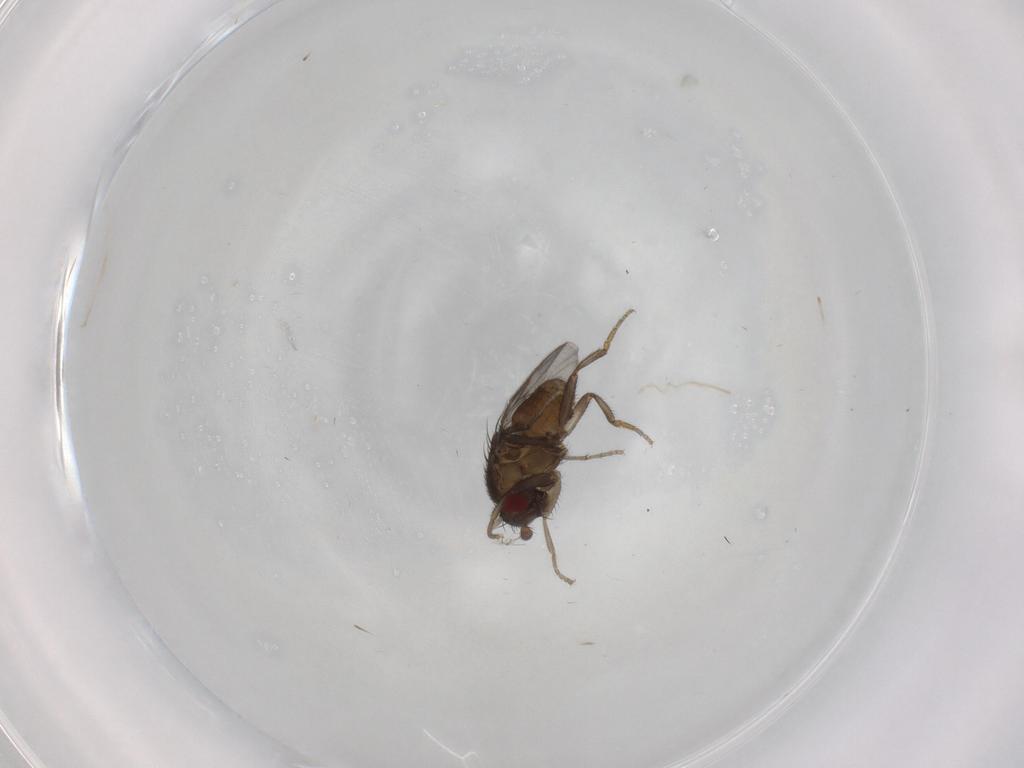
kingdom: Animalia
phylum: Arthropoda
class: Insecta
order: Diptera
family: Sphaeroceridae
